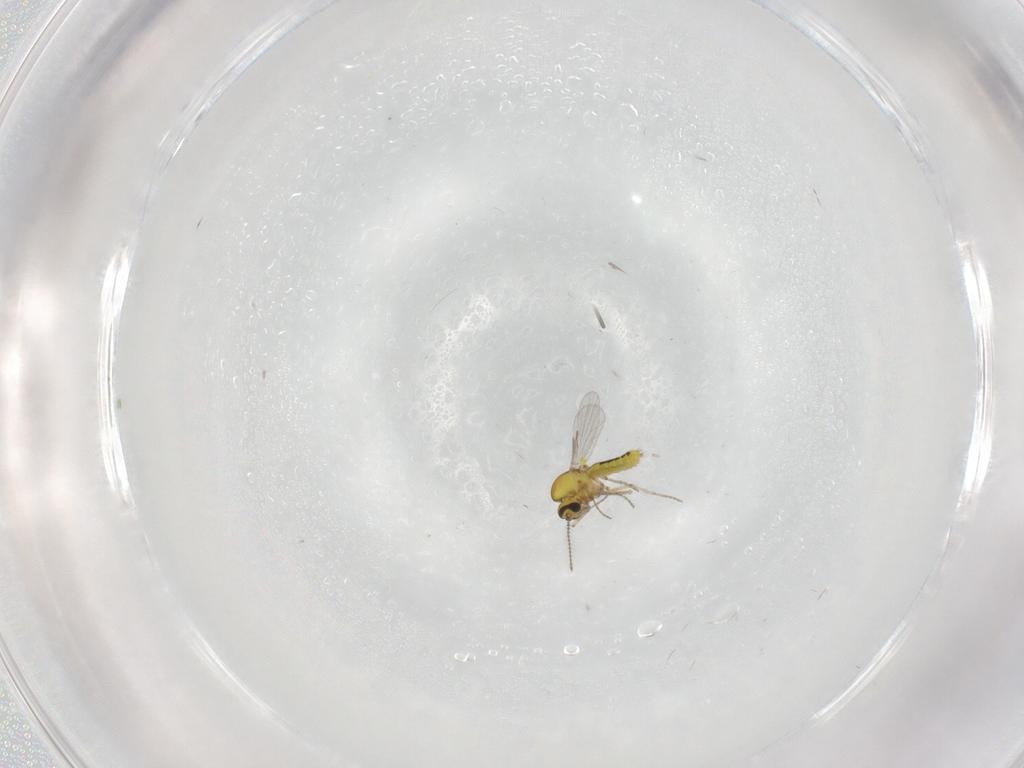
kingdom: Animalia
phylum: Arthropoda
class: Insecta
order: Diptera
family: Ceratopogonidae
